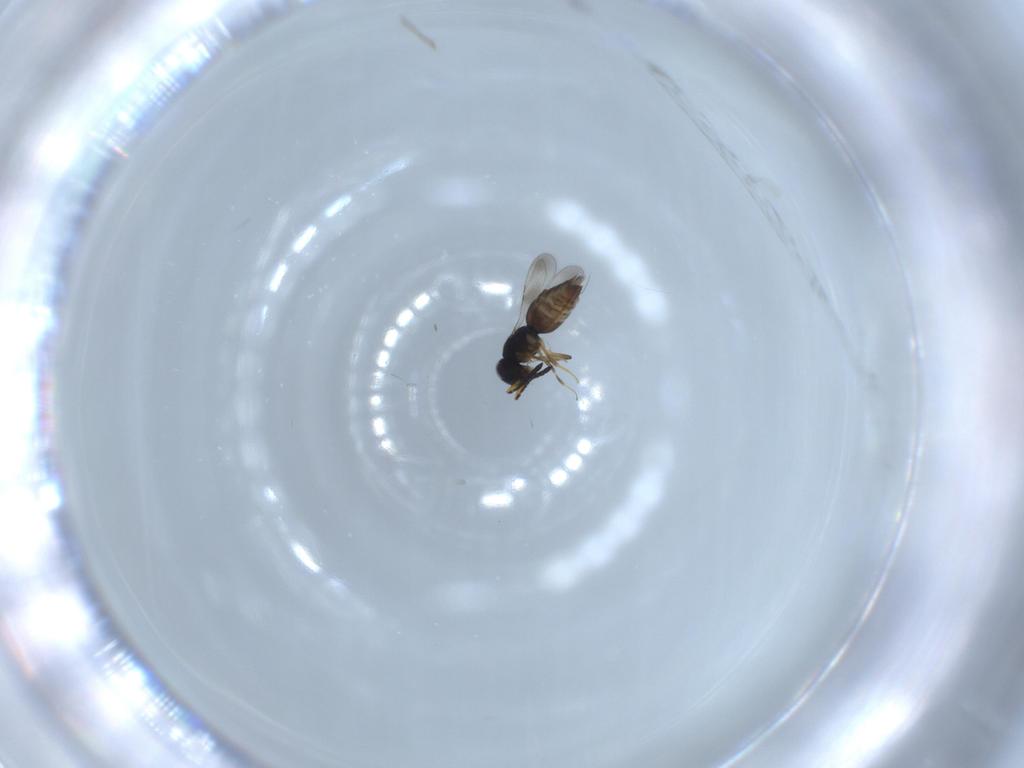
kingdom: Animalia
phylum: Arthropoda
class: Insecta
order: Hymenoptera
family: Ceraphronidae
